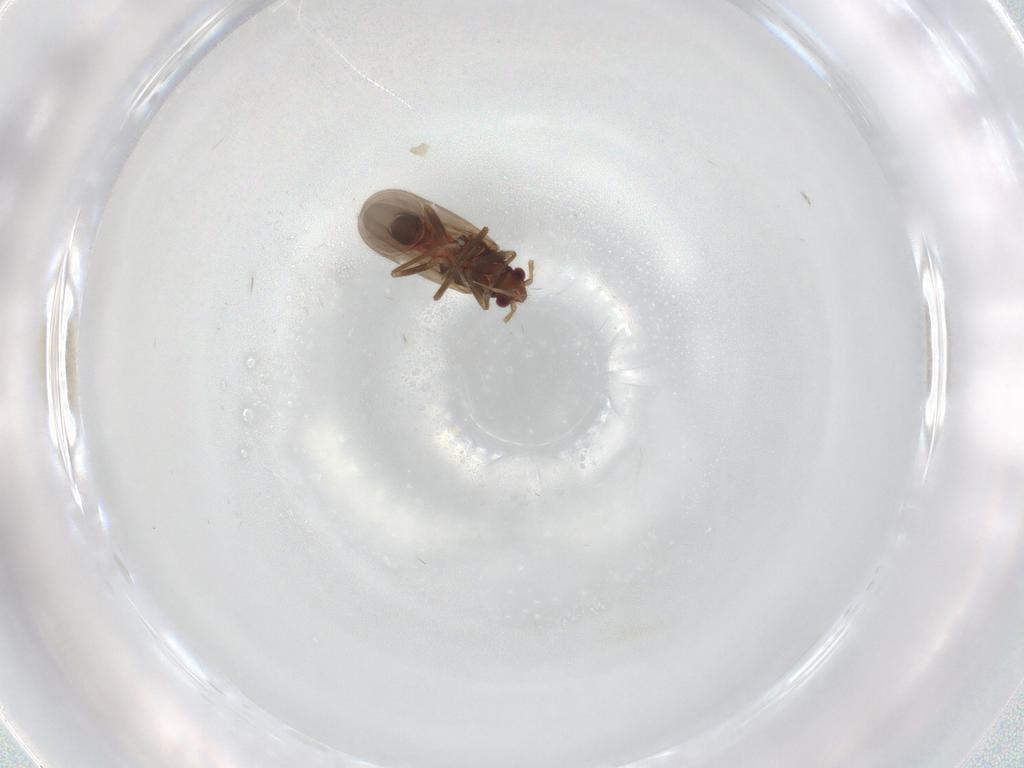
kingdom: Animalia
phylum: Arthropoda
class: Insecta
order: Hemiptera
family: Ceratocombidae
